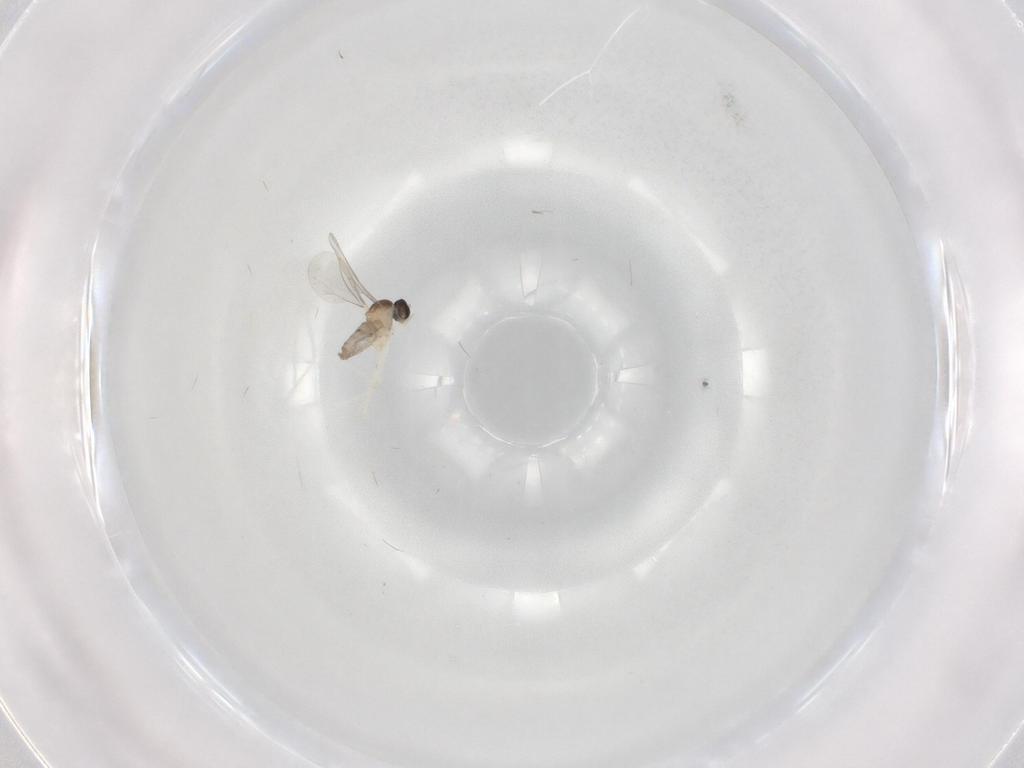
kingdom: Animalia
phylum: Arthropoda
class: Insecta
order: Diptera
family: Cecidomyiidae
